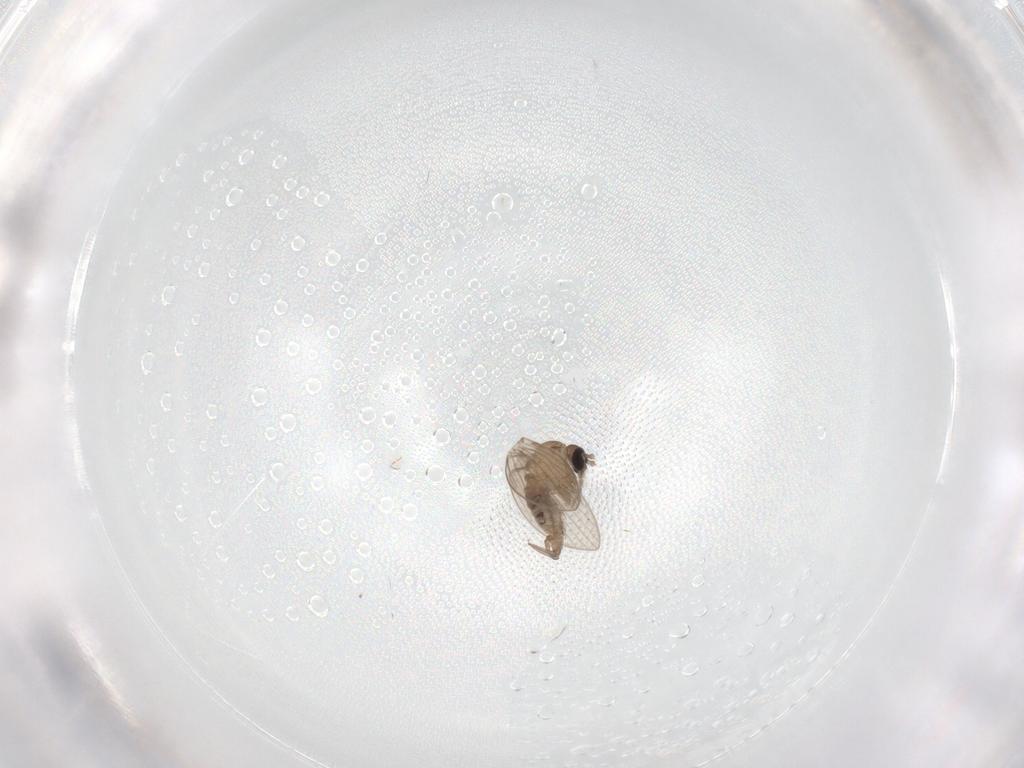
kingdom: Animalia
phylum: Arthropoda
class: Insecta
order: Diptera
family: Psychodidae
